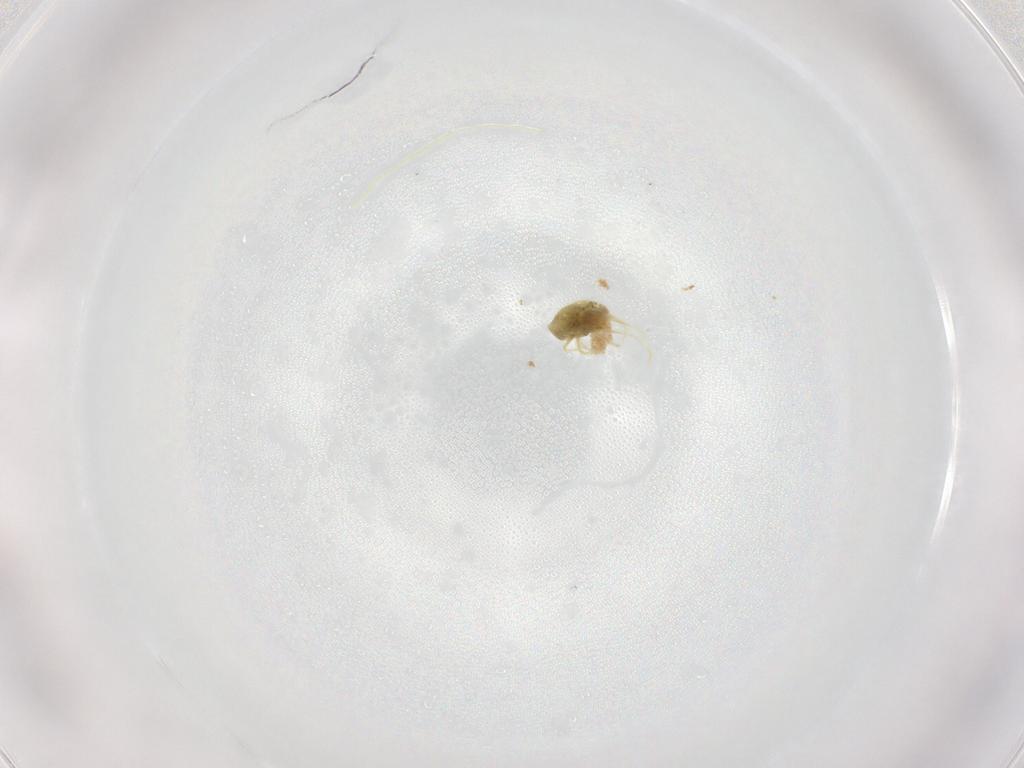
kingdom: Animalia
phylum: Arthropoda
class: Arachnida
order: Trombidiformes
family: Tetranychidae
